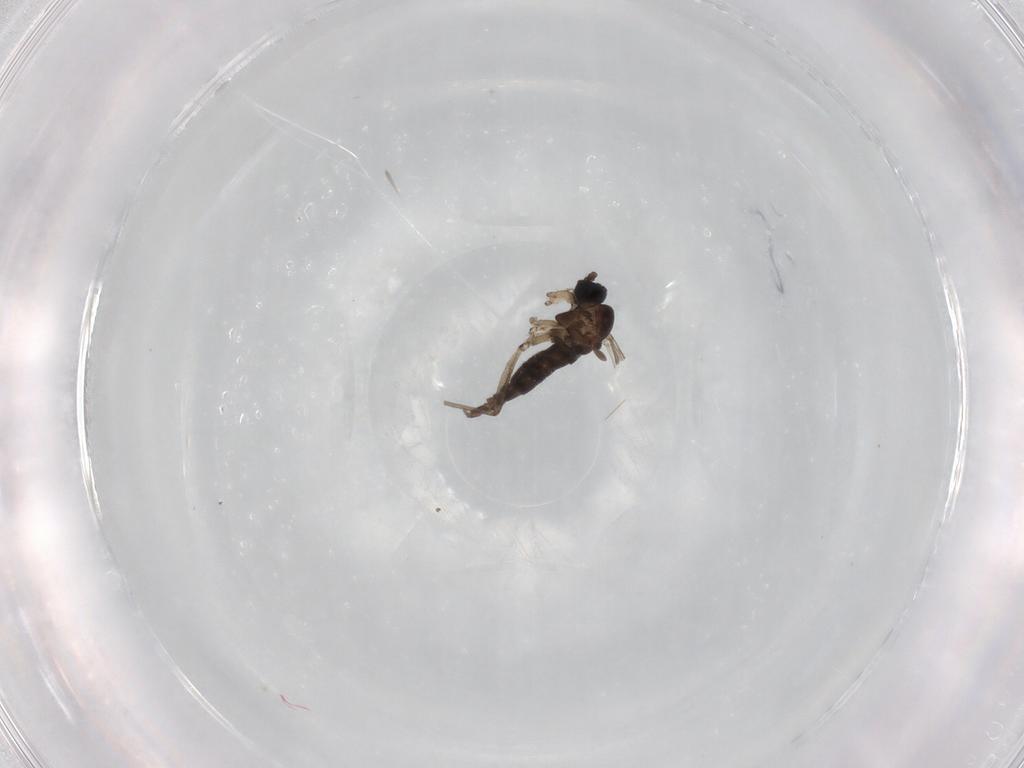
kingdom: Animalia
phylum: Arthropoda
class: Insecta
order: Diptera
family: Sciaridae
